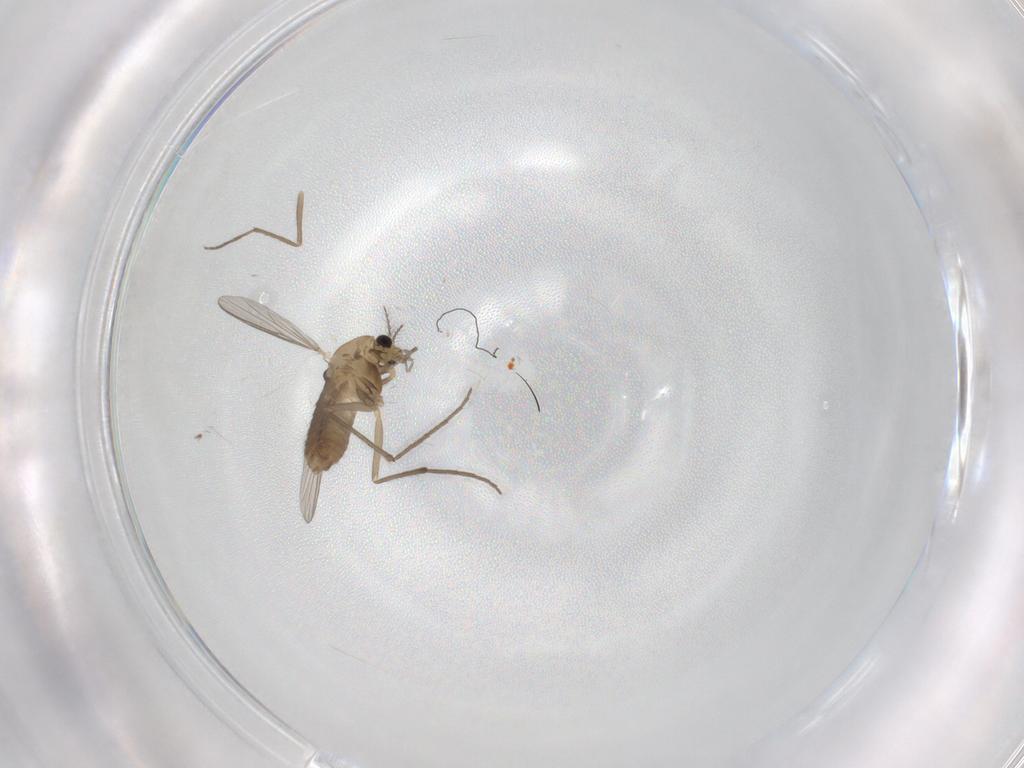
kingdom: Animalia
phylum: Arthropoda
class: Insecta
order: Diptera
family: Chironomidae
